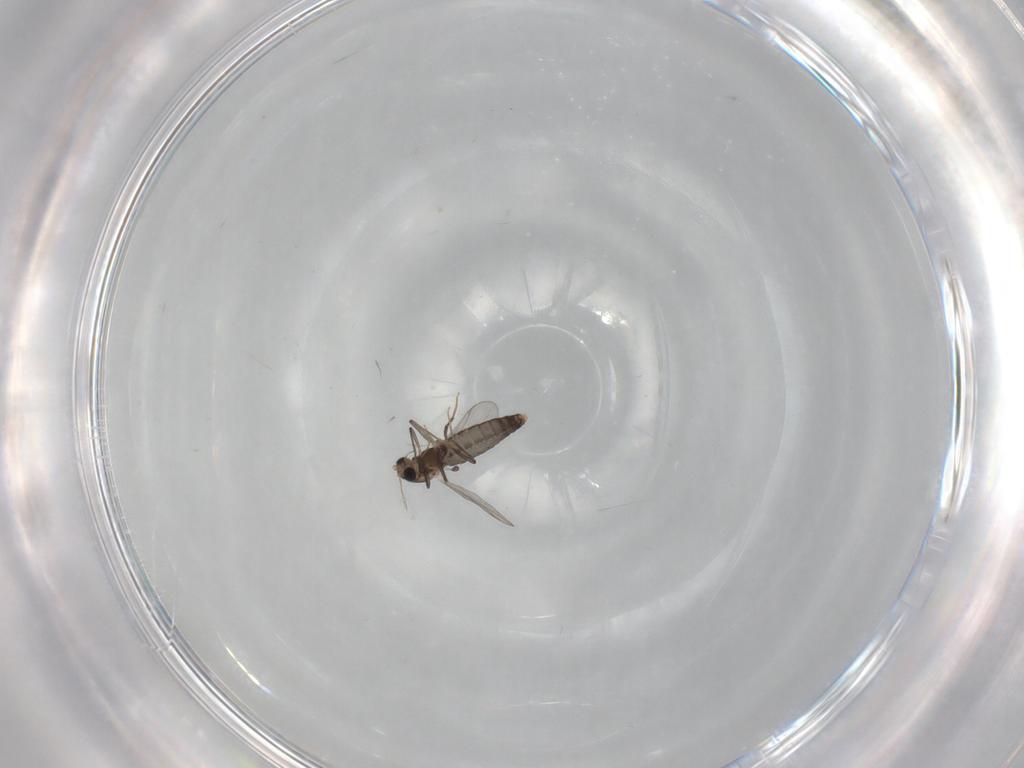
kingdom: Animalia
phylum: Arthropoda
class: Insecta
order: Diptera
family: Chironomidae
